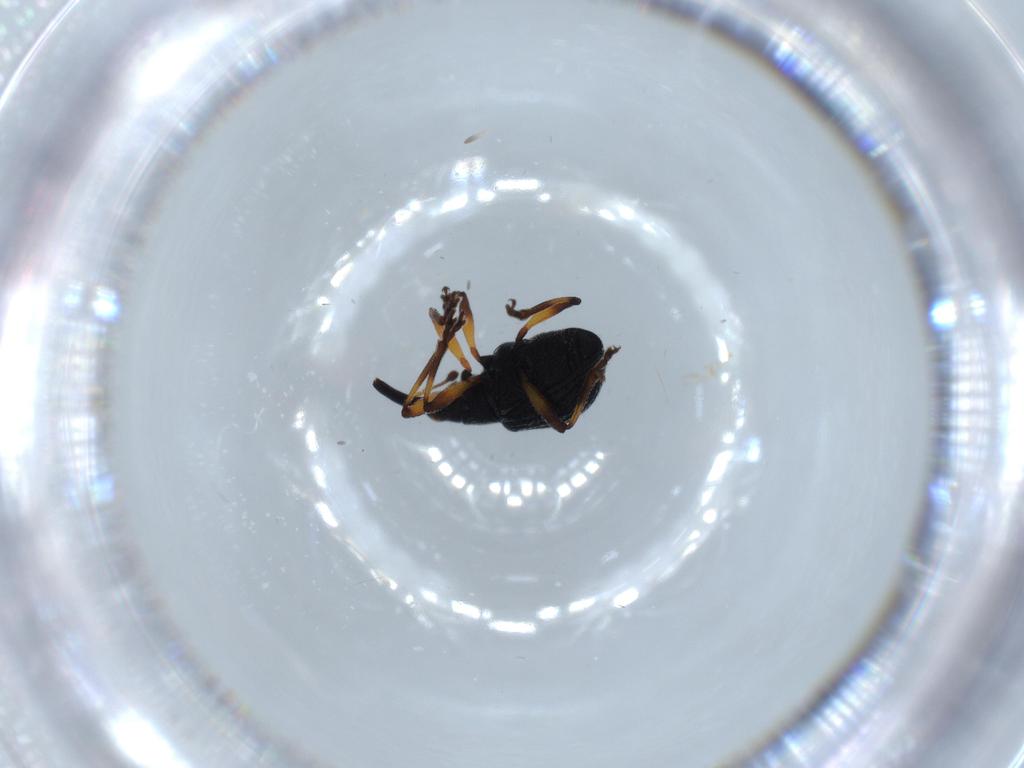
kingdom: Animalia
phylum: Arthropoda
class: Insecta
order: Coleoptera
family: Brentidae
